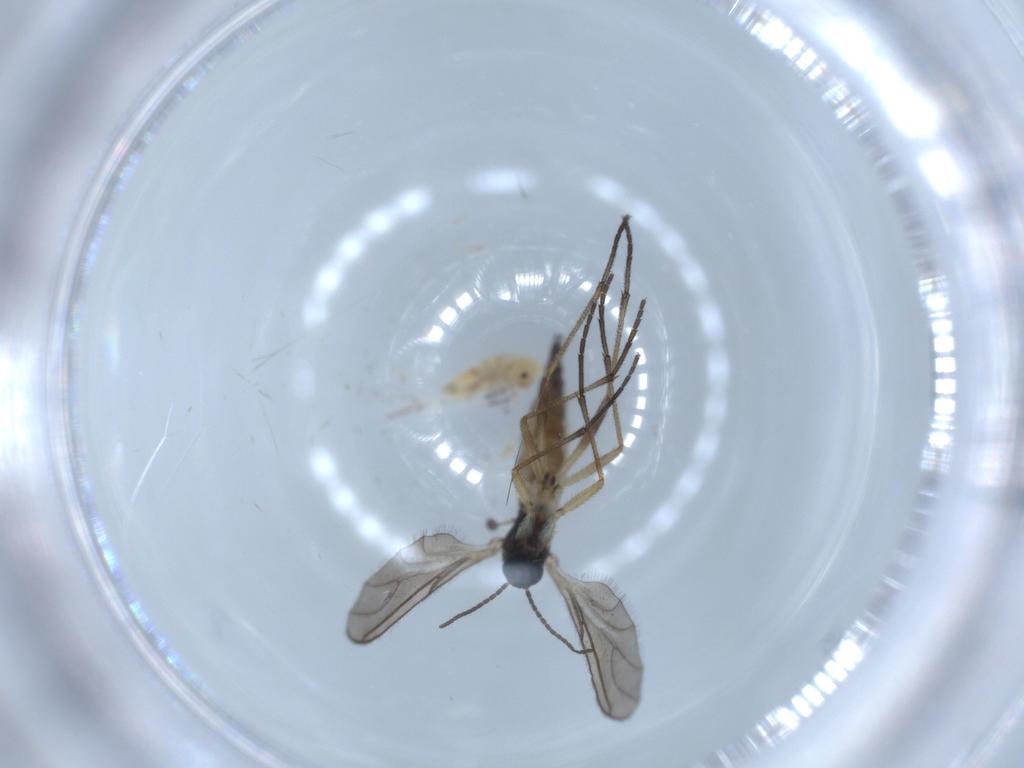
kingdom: Animalia
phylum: Arthropoda
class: Insecta
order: Diptera
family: Sciaridae
